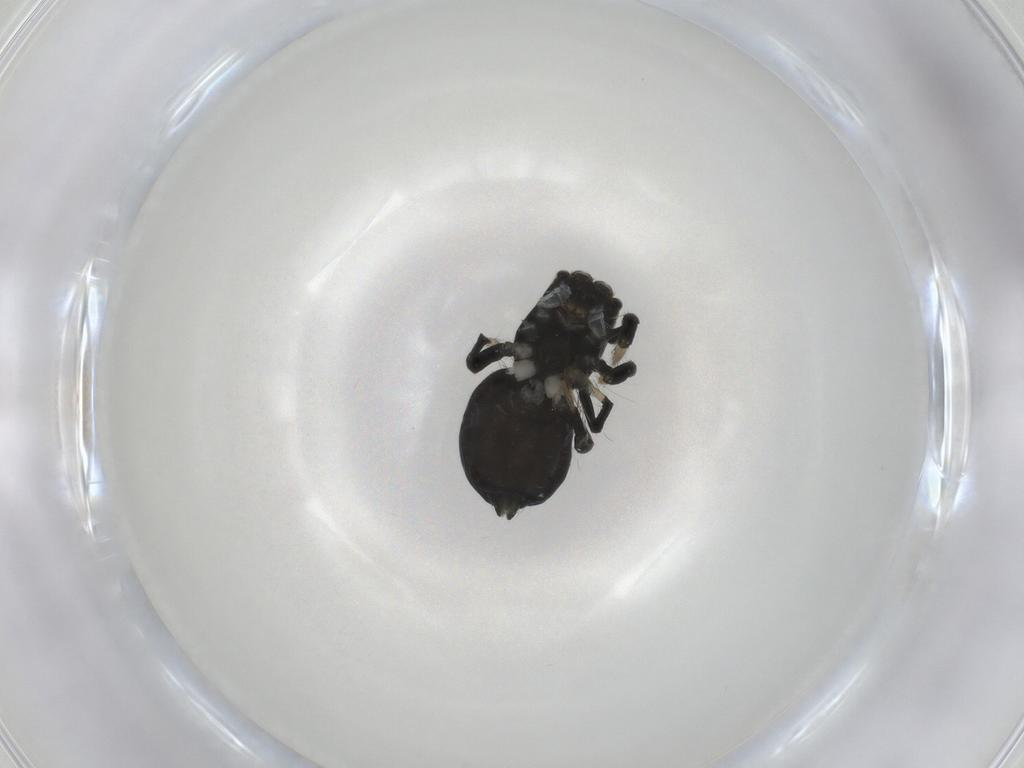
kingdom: Animalia
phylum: Arthropoda
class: Arachnida
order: Araneae
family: Salticidae
